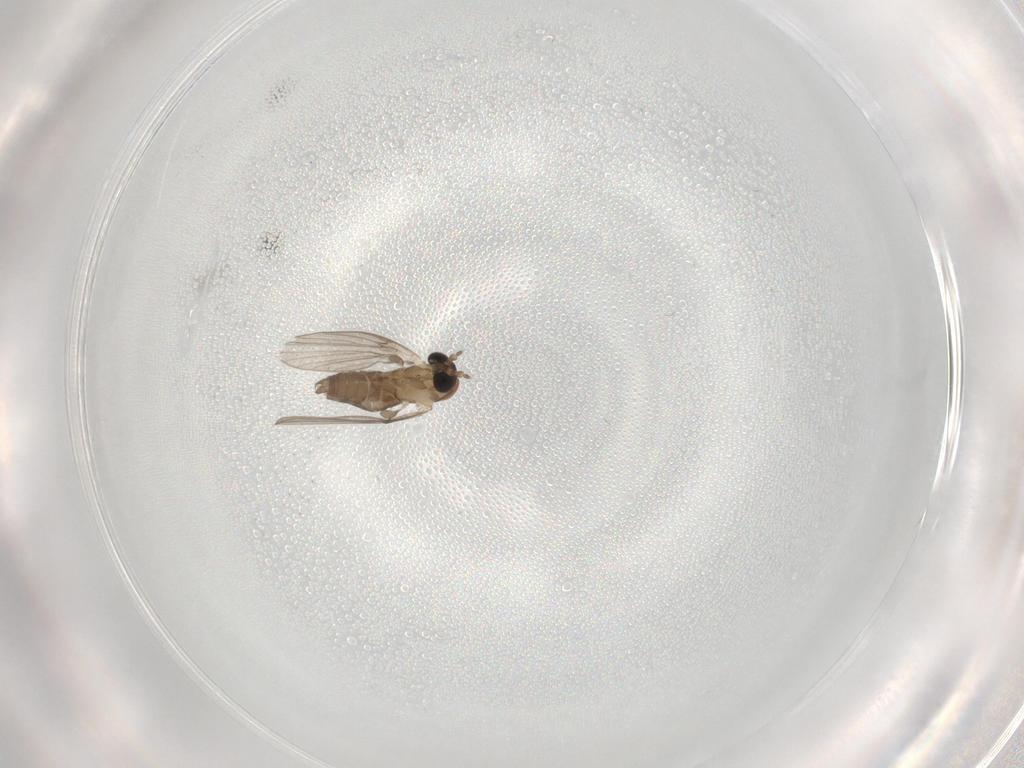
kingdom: Animalia
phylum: Arthropoda
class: Insecta
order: Diptera
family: Psychodidae
